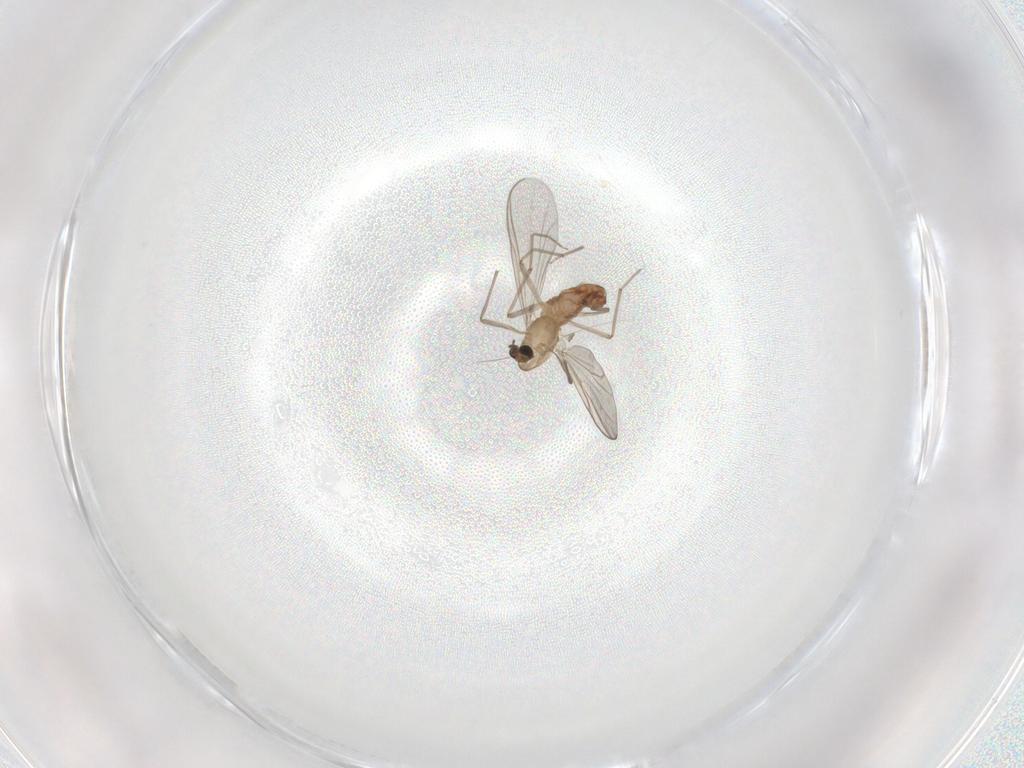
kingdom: Animalia
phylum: Arthropoda
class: Insecta
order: Diptera
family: Chironomidae
